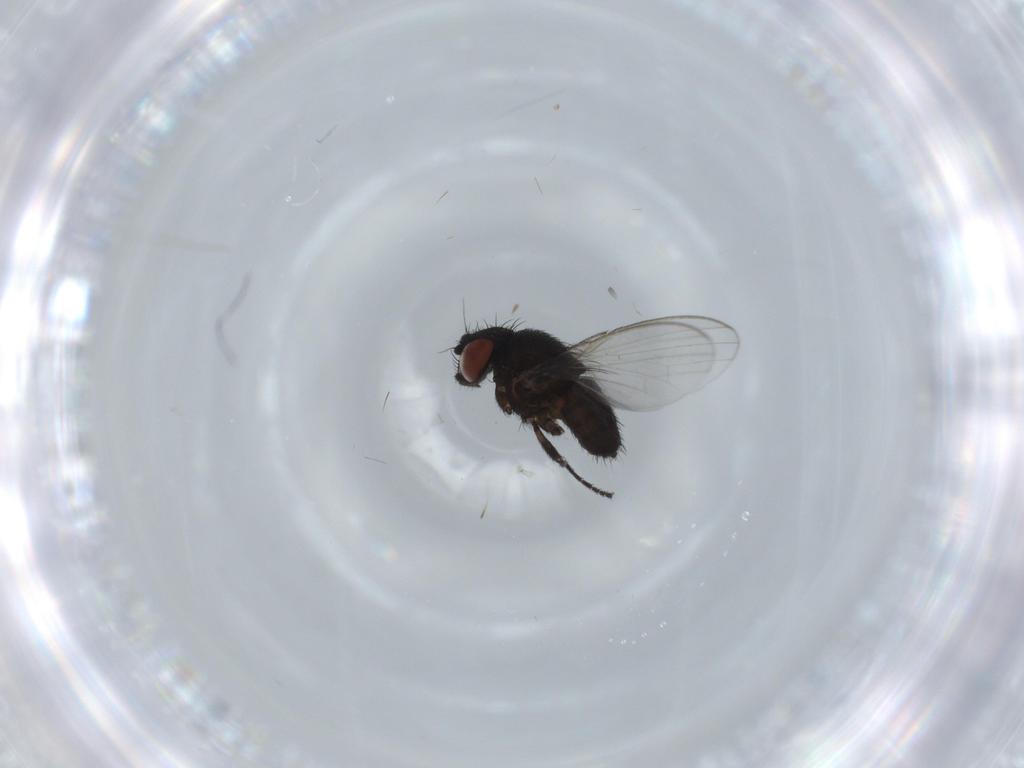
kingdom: Animalia
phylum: Arthropoda
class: Insecta
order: Diptera
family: Milichiidae
